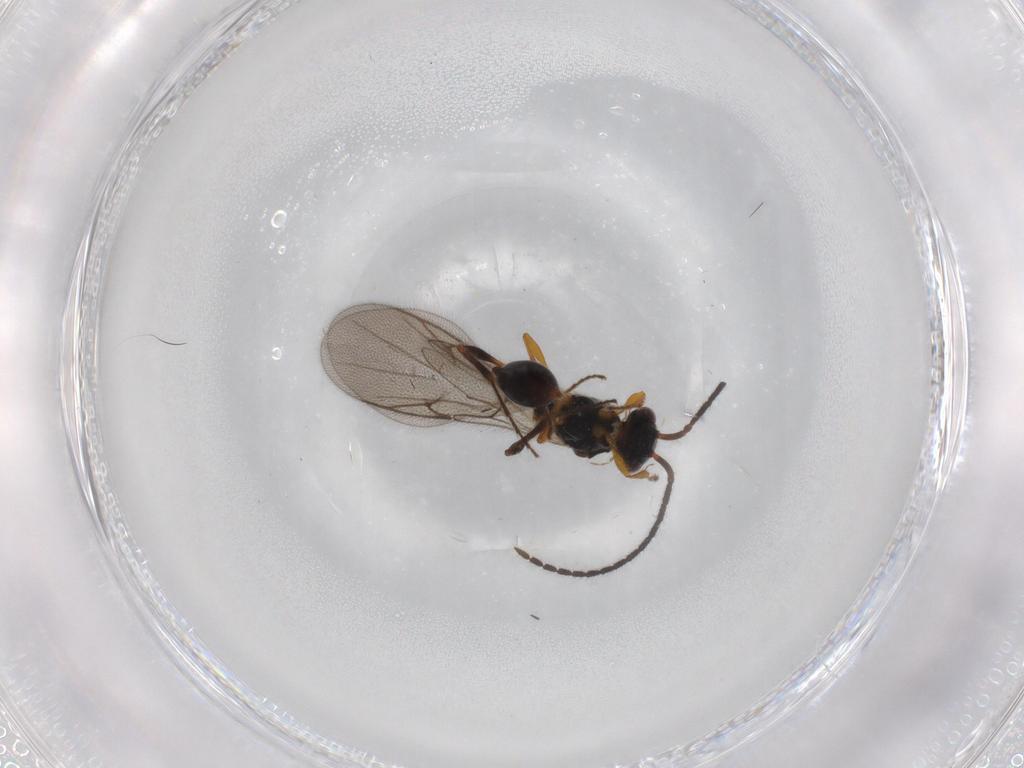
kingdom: Animalia
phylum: Arthropoda
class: Insecta
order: Hymenoptera
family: Diapriidae
